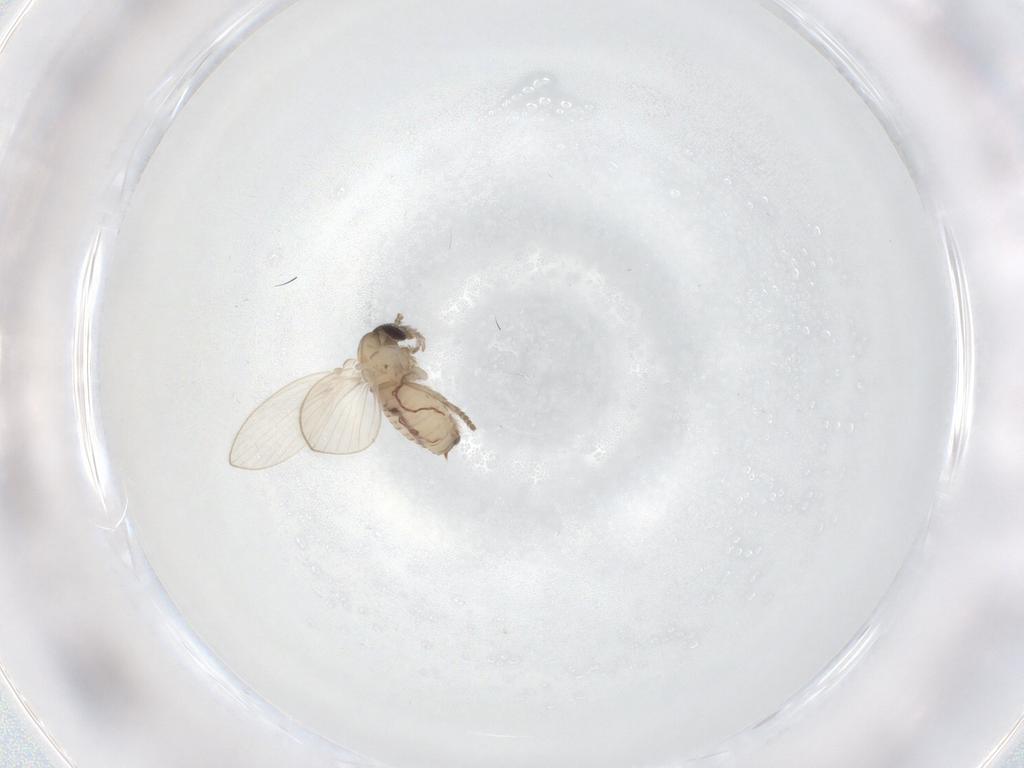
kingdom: Animalia
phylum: Arthropoda
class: Insecta
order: Diptera
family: Psychodidae
